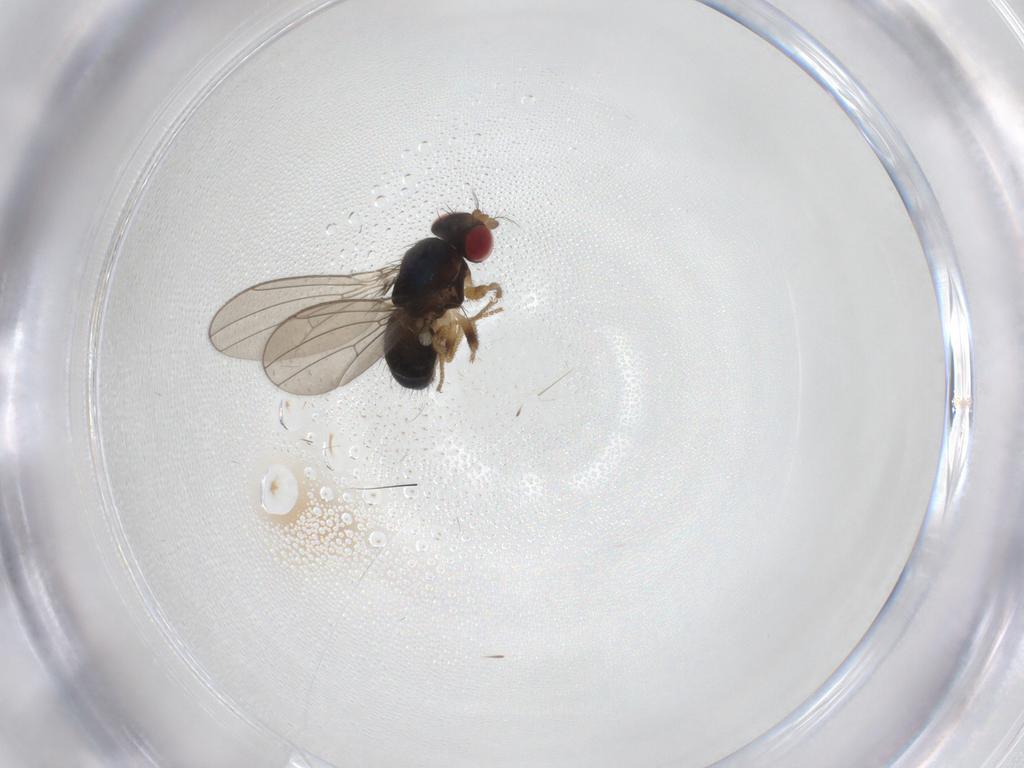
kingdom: Animalia
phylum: Arthropoda
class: Insecta
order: Diptera
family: Drosophilidae
